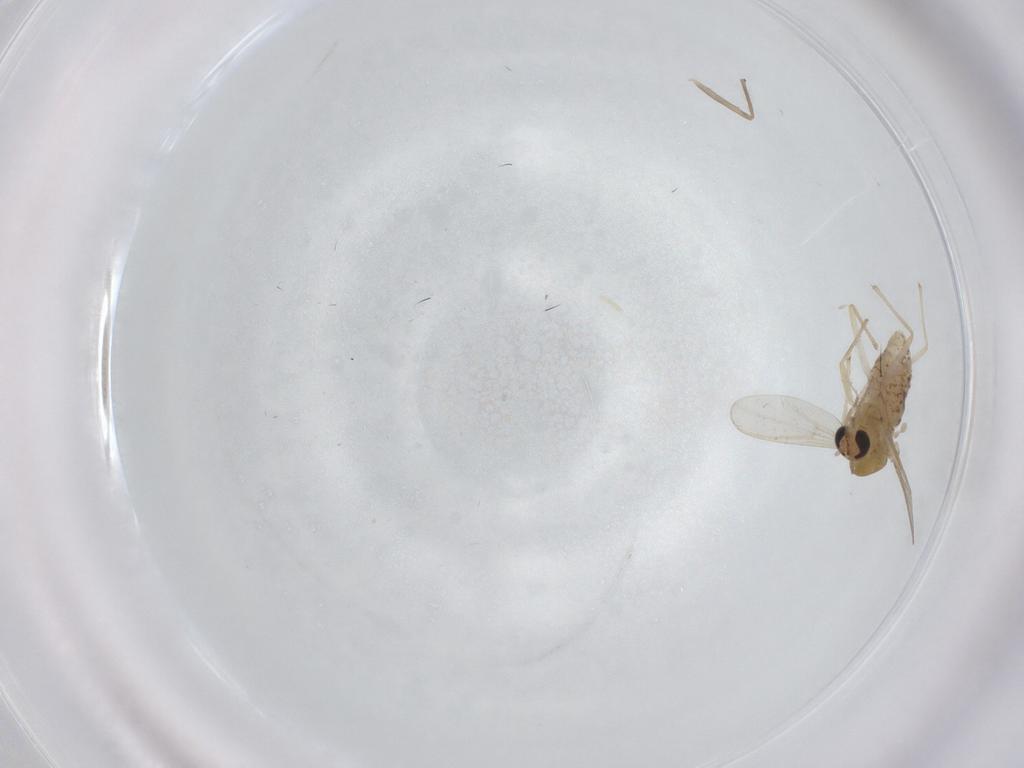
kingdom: Animalia
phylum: Arthropoda
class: Insecta
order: Diptera
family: Chironomidae
